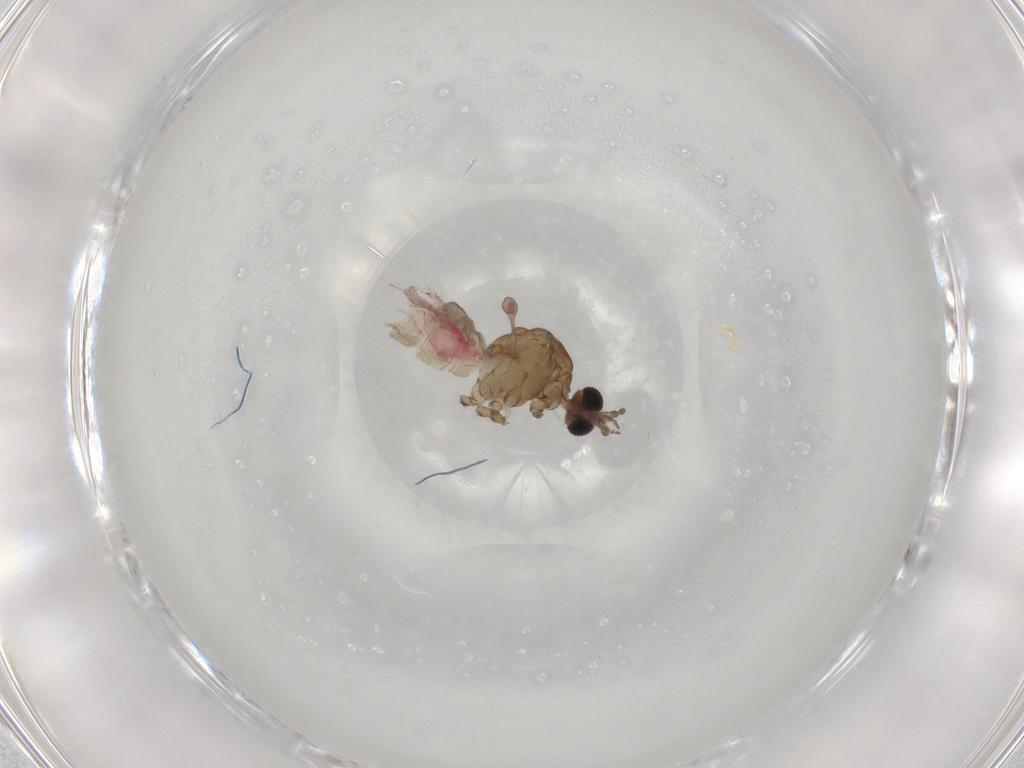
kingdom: Animalia
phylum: Arthropoda
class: Insecta
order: Diptera
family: Limoniidae
